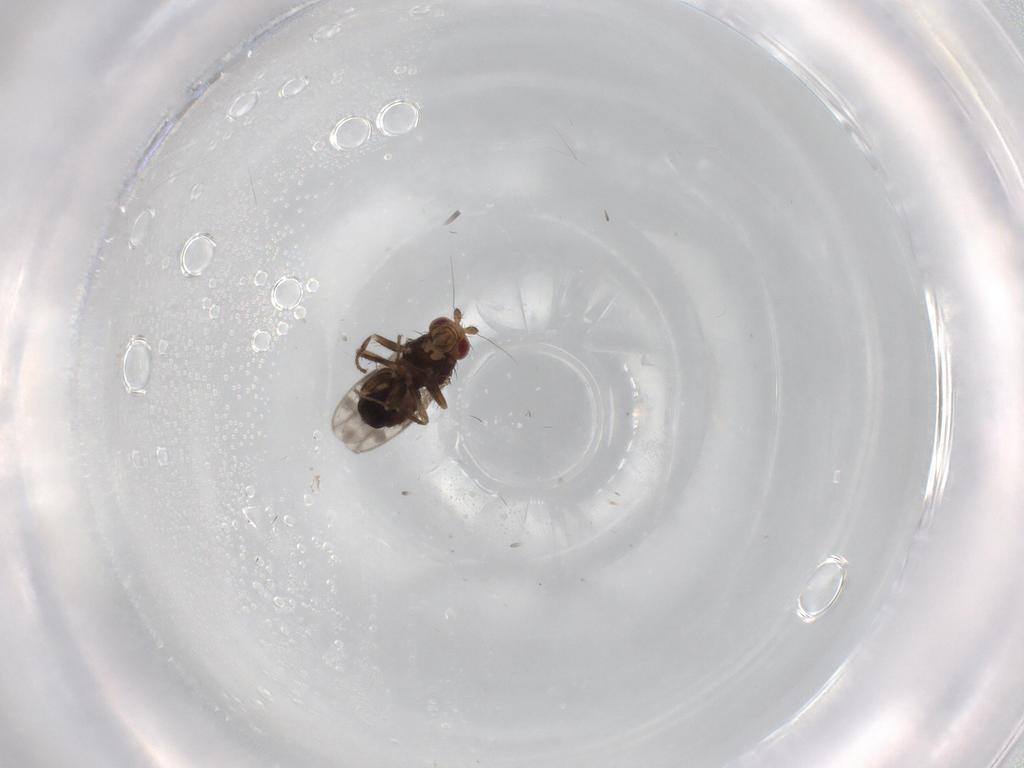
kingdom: Animalia
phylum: Arthropoda
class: Insecta
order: Diptera
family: Sphaeroceridae
